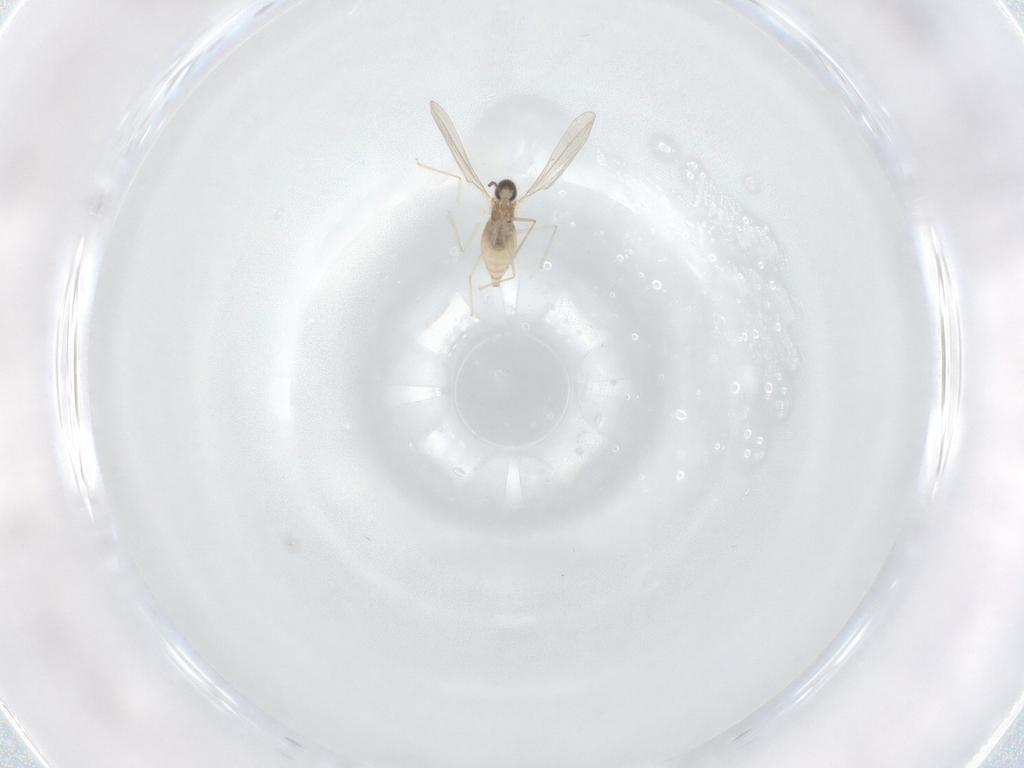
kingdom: Animalia
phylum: Arthropoda
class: Insecta
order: Diptera
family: Cecidomyiidae
